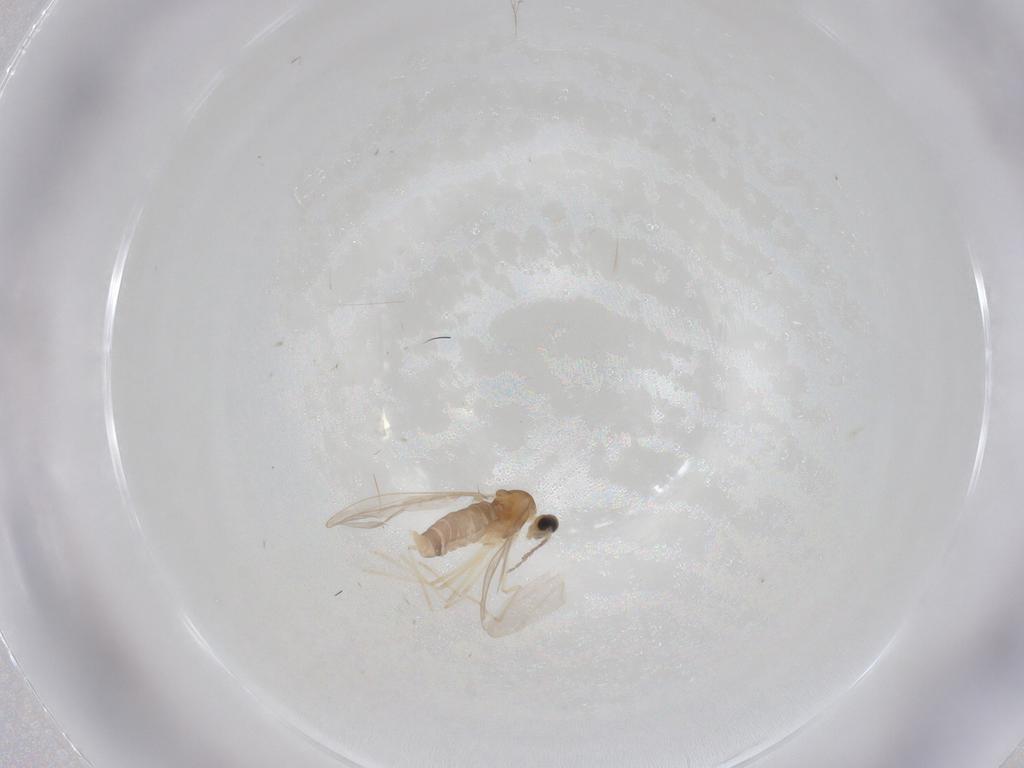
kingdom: Animalia
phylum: Arthropoda
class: Insecta
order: Diptera
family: Cecidomyiidae
